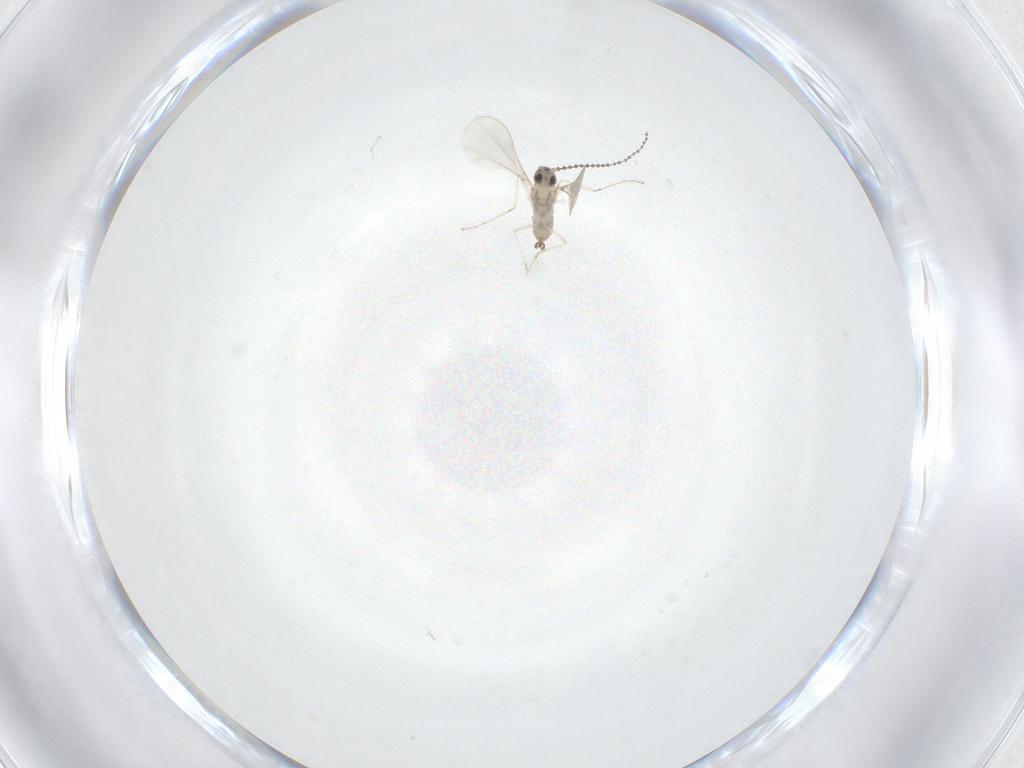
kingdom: Animalia
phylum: Arthropoda
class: Insecta
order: Diptera
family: Cecidomyiidae
